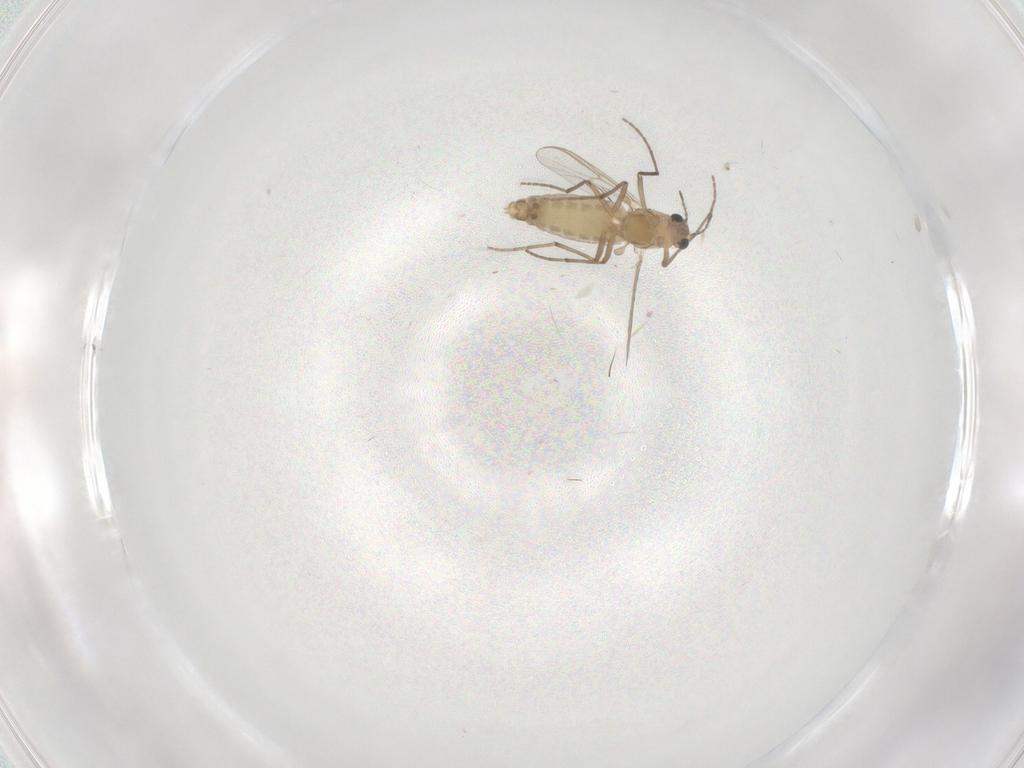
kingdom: Animalia
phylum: Arthropoda
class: Insecta
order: Diptera
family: Chironomidae
